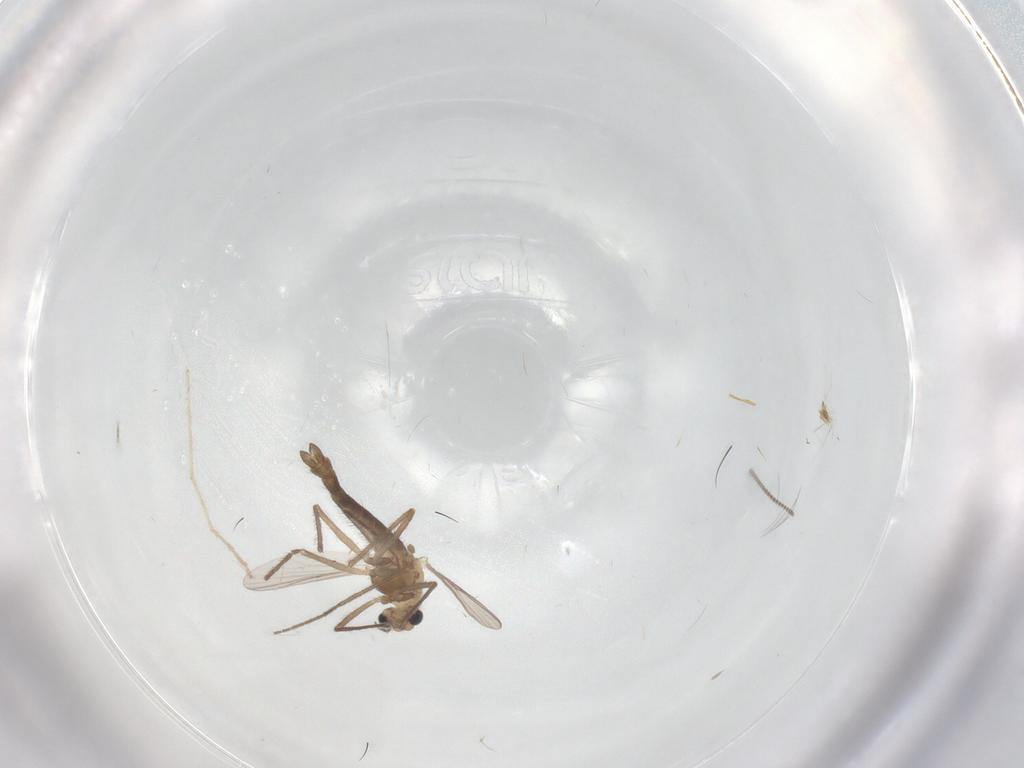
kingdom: Animalia
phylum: Arthropoda
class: Insecta
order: Diptera
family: Chironomidae
